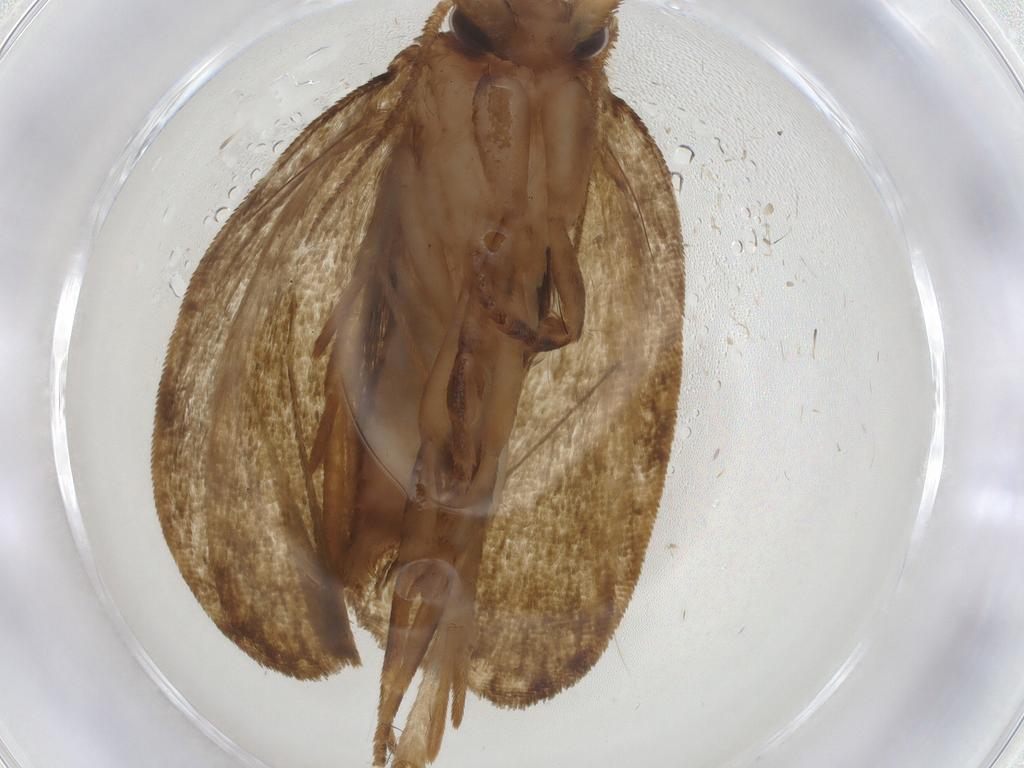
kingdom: Animalia
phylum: Arthropoda
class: Insecta
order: Lepidoptera
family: Geometridae
